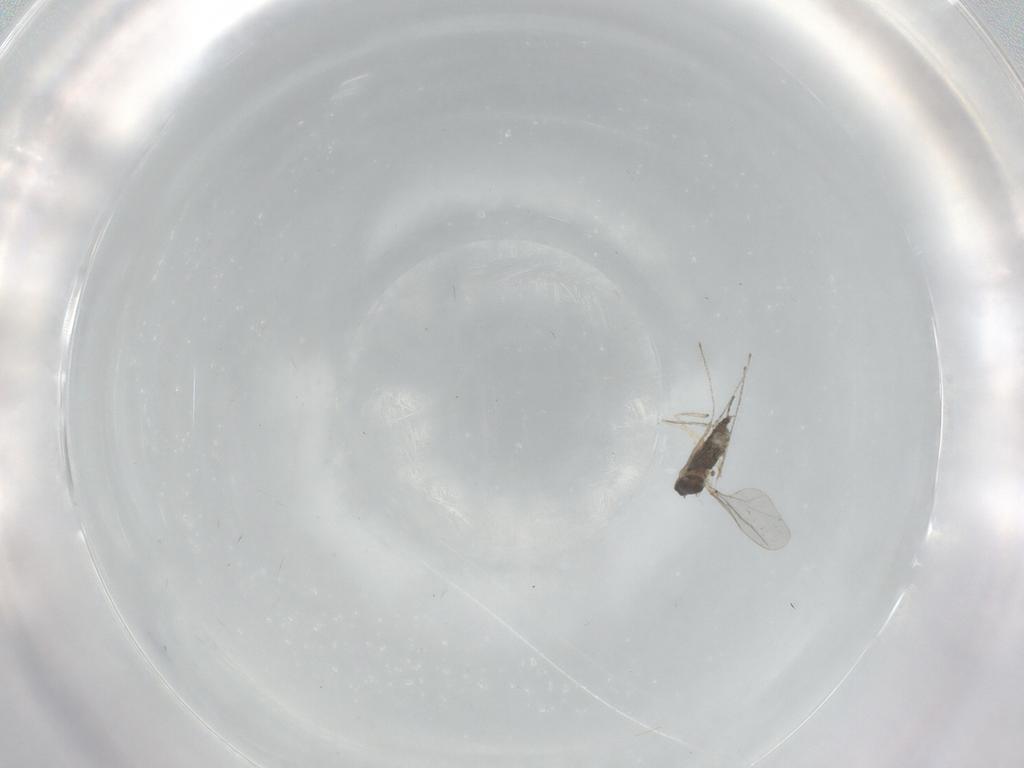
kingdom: Animalia
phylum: Arthropoda
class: Insecta
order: Diptera
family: Cecidomyiidae
